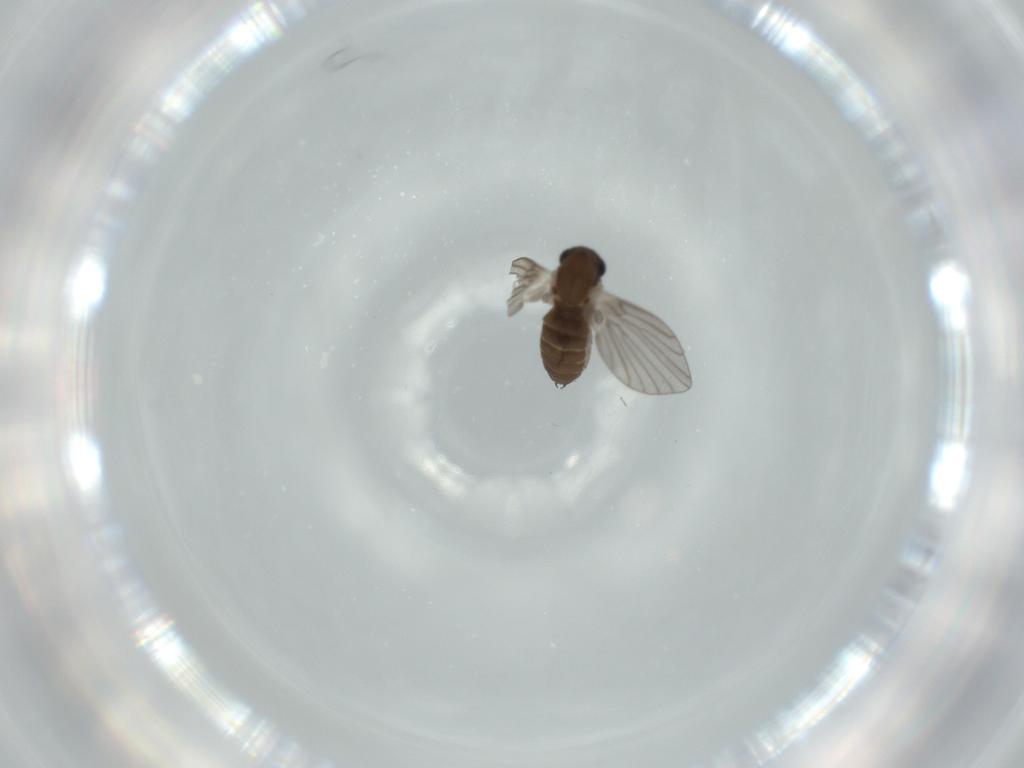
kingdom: Animalia
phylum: Arthropoda
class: Insecta
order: Diptera
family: Psychodidae
